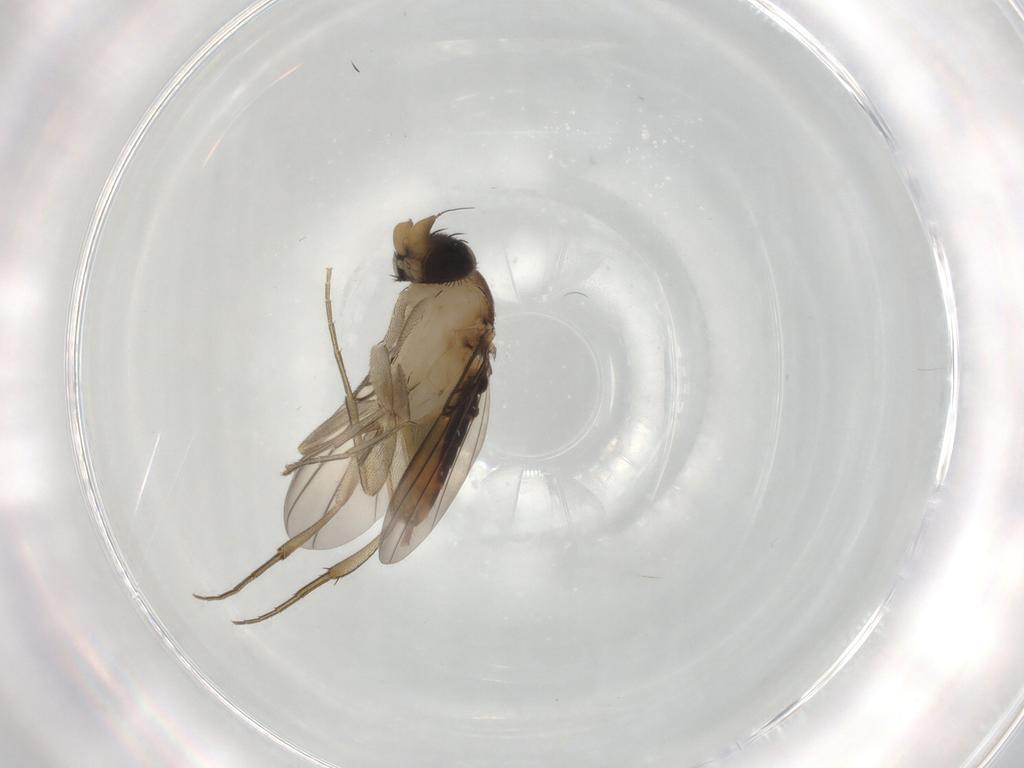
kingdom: Animalia
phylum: Arthropoda
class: Insecta
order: Diptera
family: Phoridae
